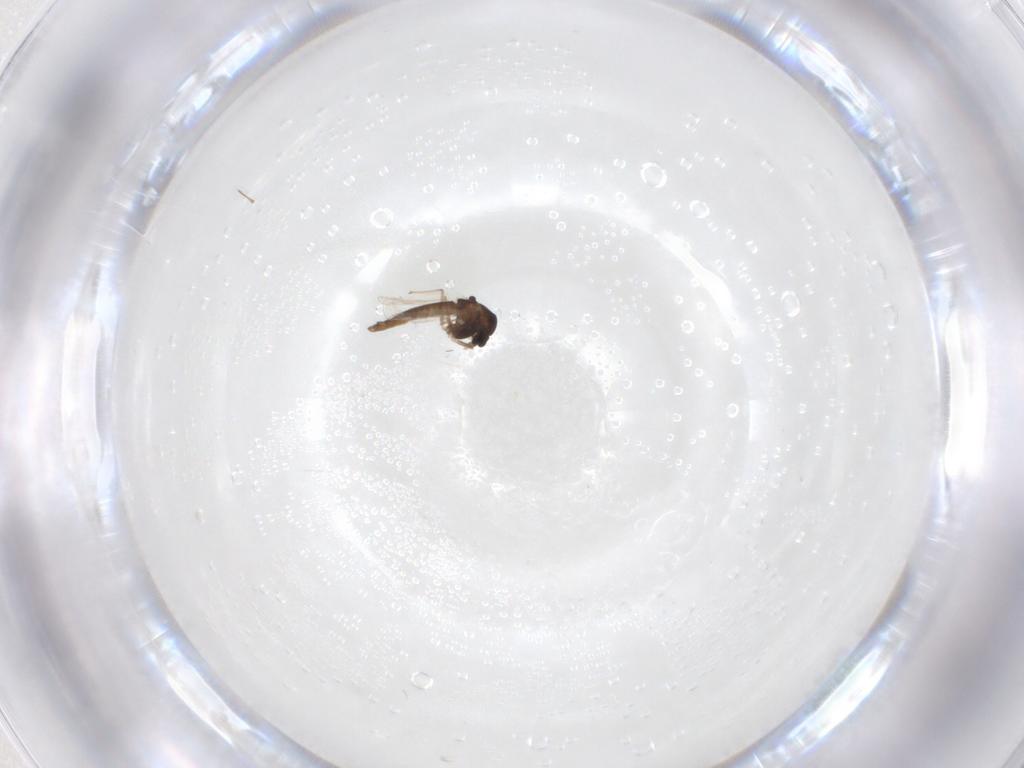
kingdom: Animalia
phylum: Arthropoda
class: Insecta
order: Diptera
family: Chironomidae
